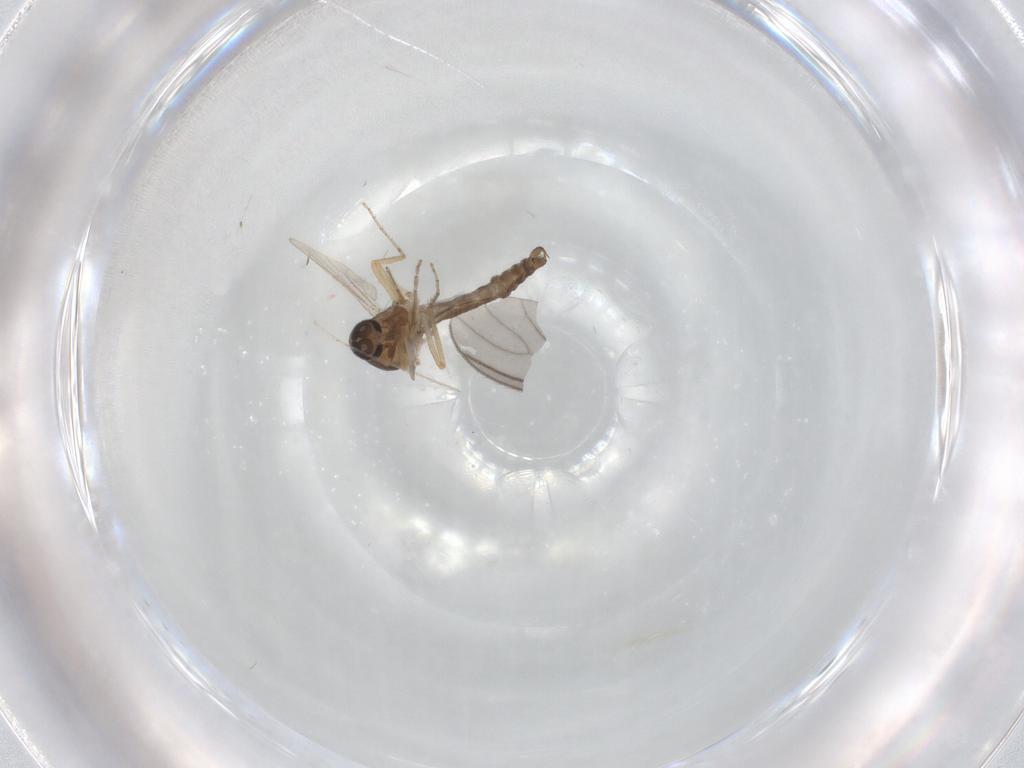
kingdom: Animalia
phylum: Arthropoda
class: Insecta
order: Diptera
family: Ceratopogonidae
